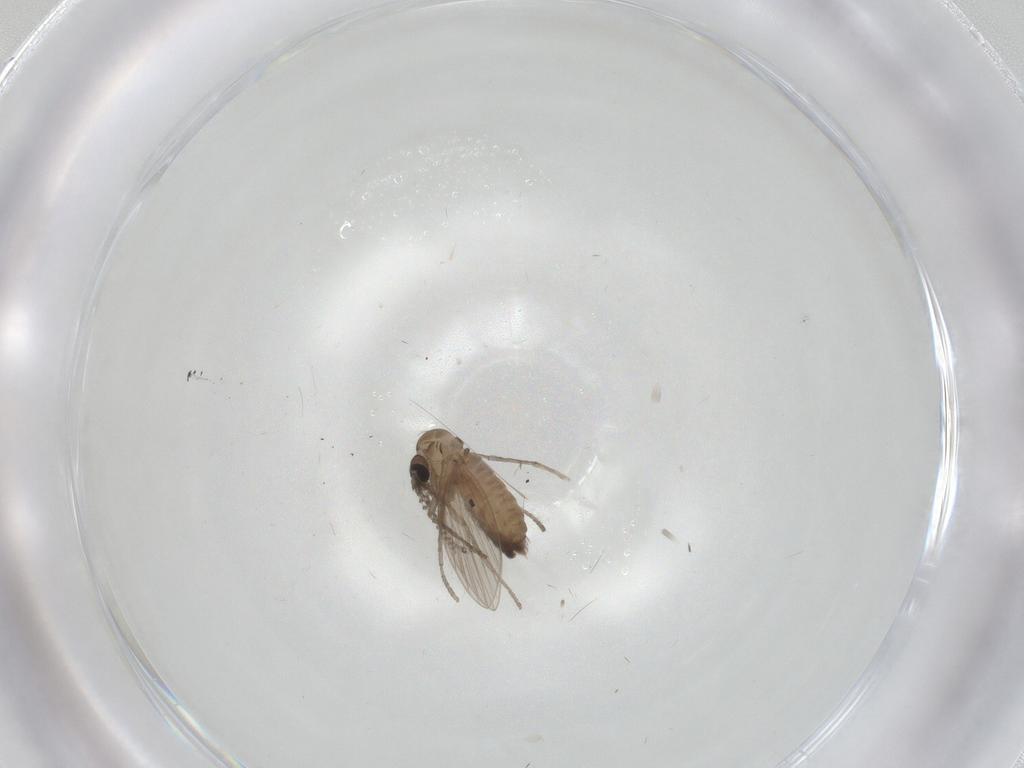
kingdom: Animalia
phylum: Arthropoda
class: Insecta
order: Diptera
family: Psychodidae
